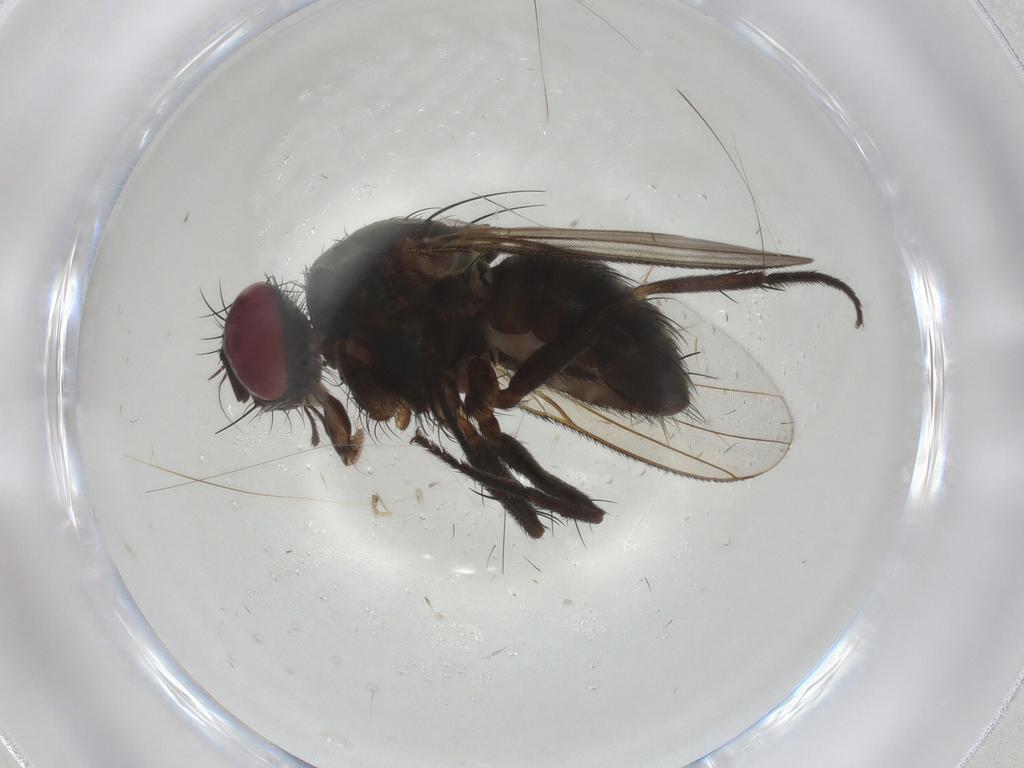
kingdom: Animalia
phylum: Arthropoda
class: Insecta
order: Diptera
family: Muscidae
